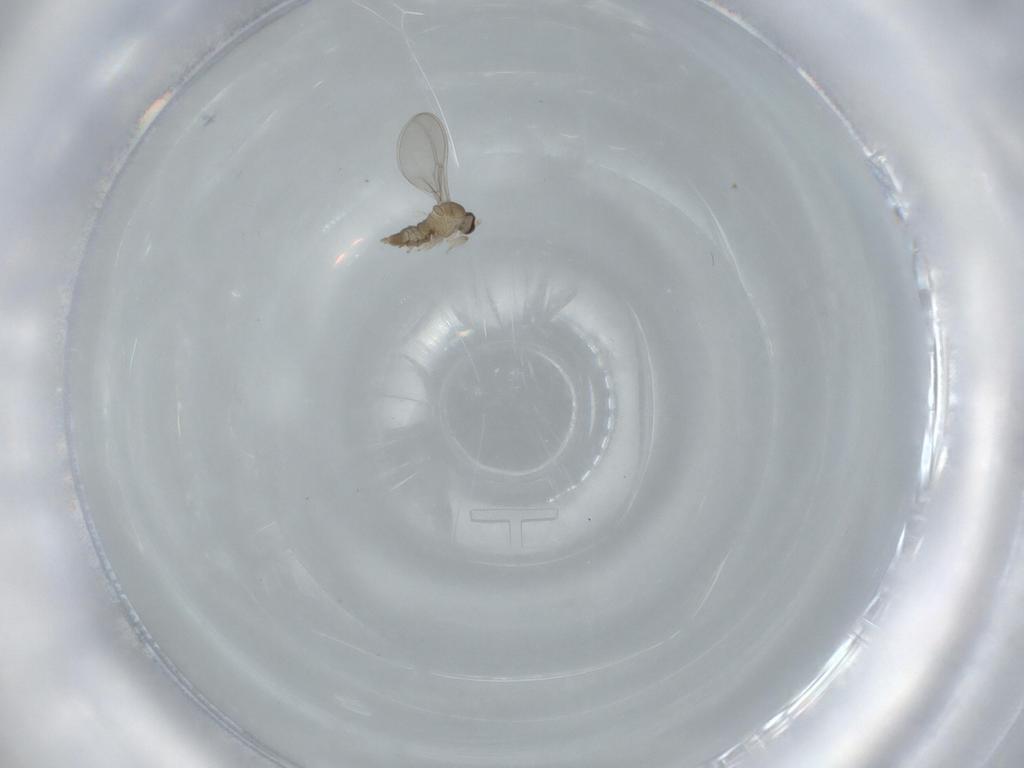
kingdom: Animalia
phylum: Arthropoda
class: Insecta
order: Diptera
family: Cecidomyiidae
